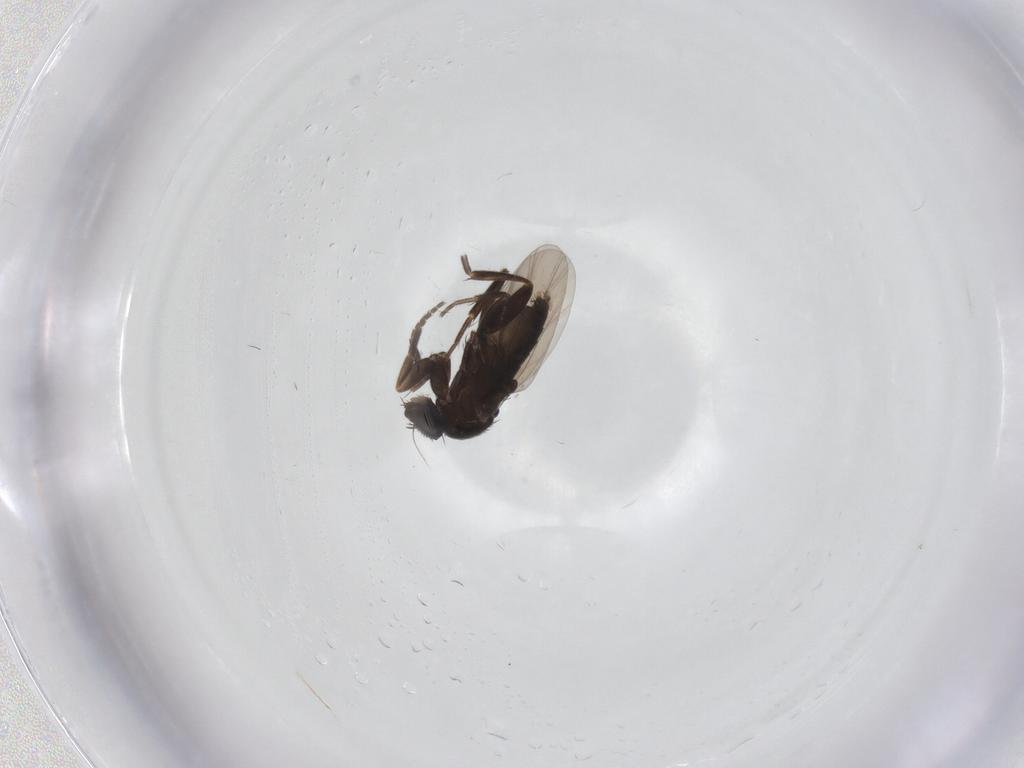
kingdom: Animalia
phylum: Arthropoda
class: Insecta
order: Diptera
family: Phoridae
